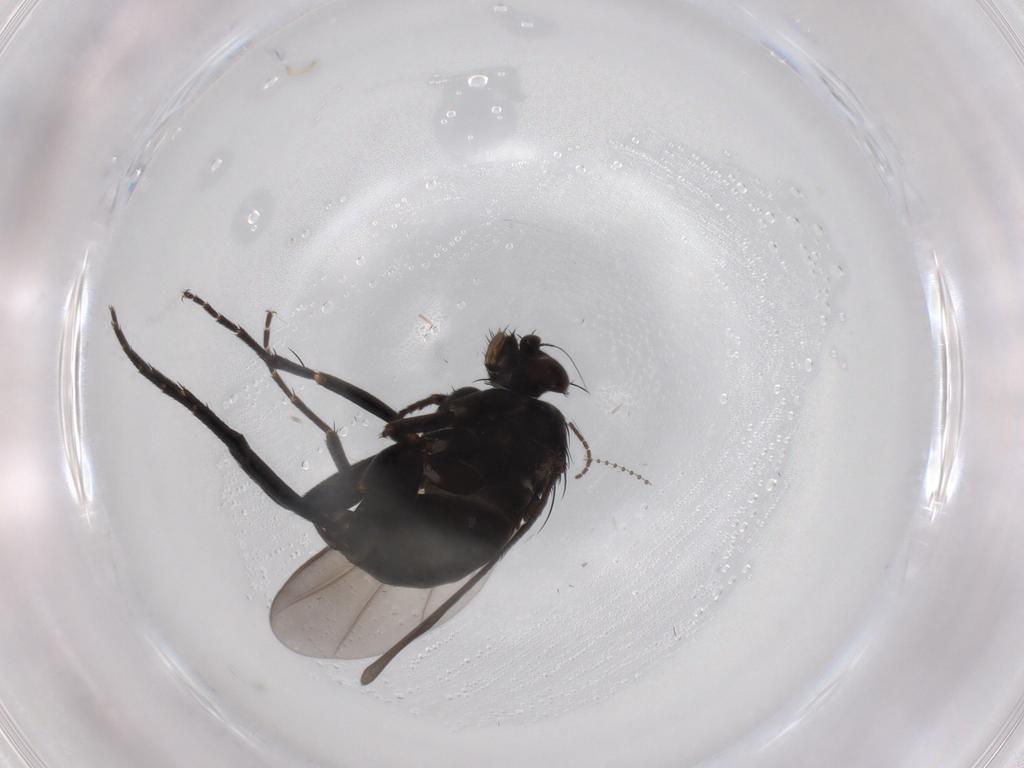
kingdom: Animalia
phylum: Arthropoda
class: Insecta
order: Diptera
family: Sciaridae
